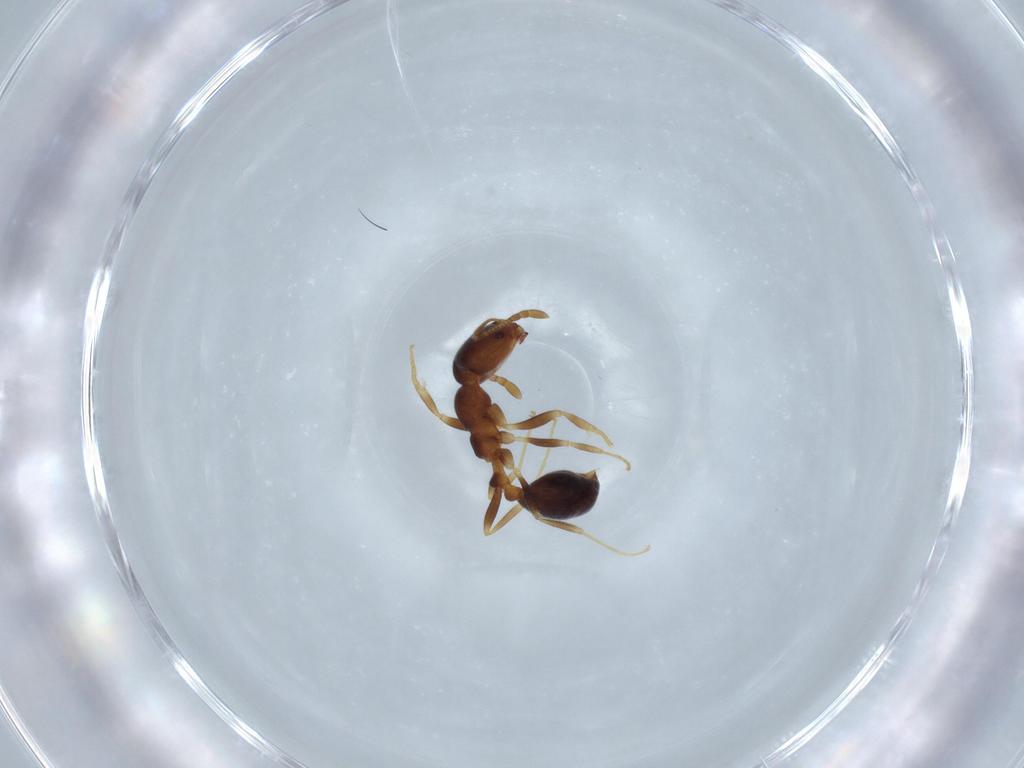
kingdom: Animalia
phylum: Arthropoda
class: Insecta
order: Hymenoptera
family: Formicidae
